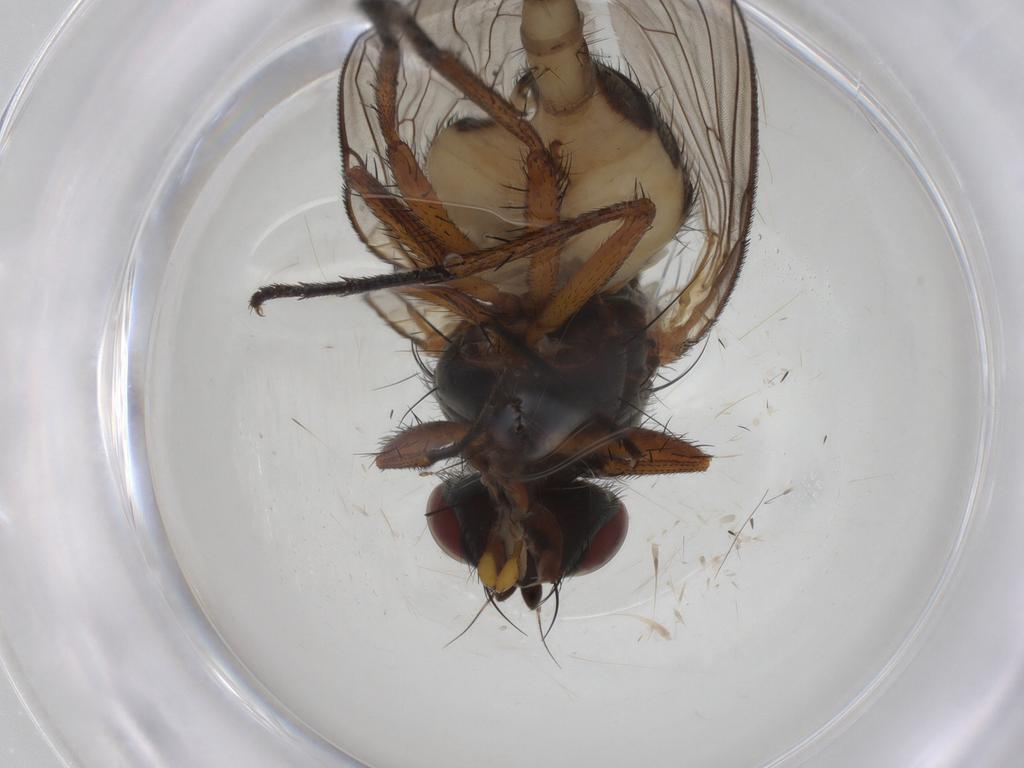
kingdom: Animalia
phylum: Arthropoda
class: Insecta
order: Diptera
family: Anthomyiidae
